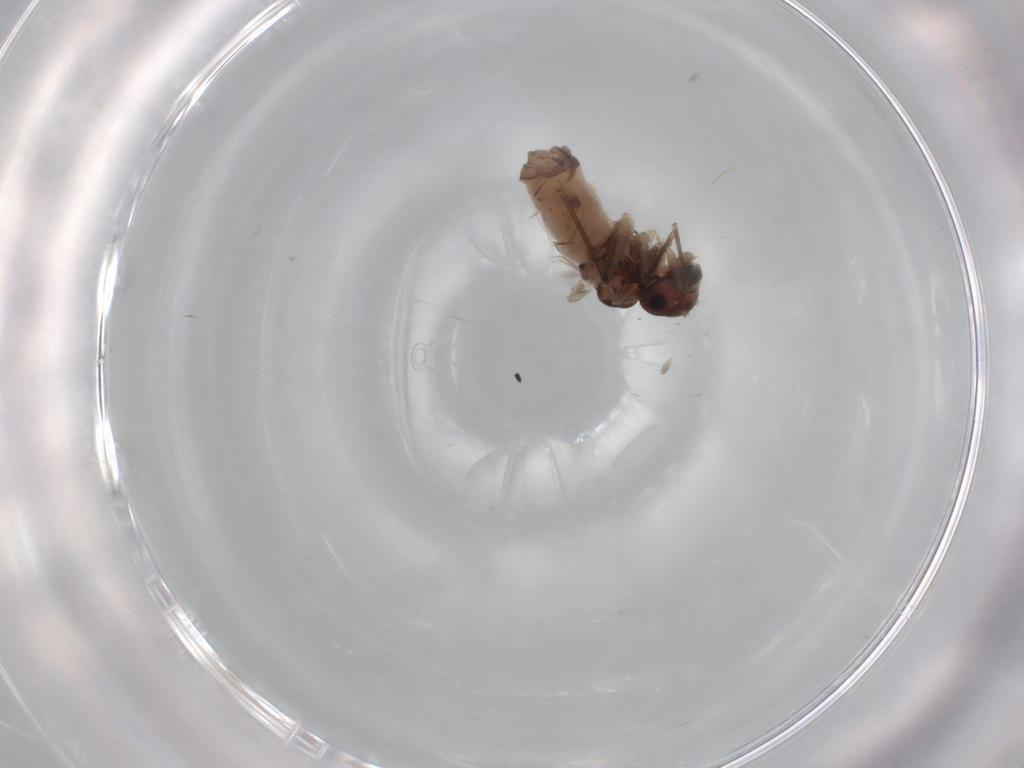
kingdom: Animalia
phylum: Arthropoda
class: Insecta
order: Psocodea
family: Peripsocidae
